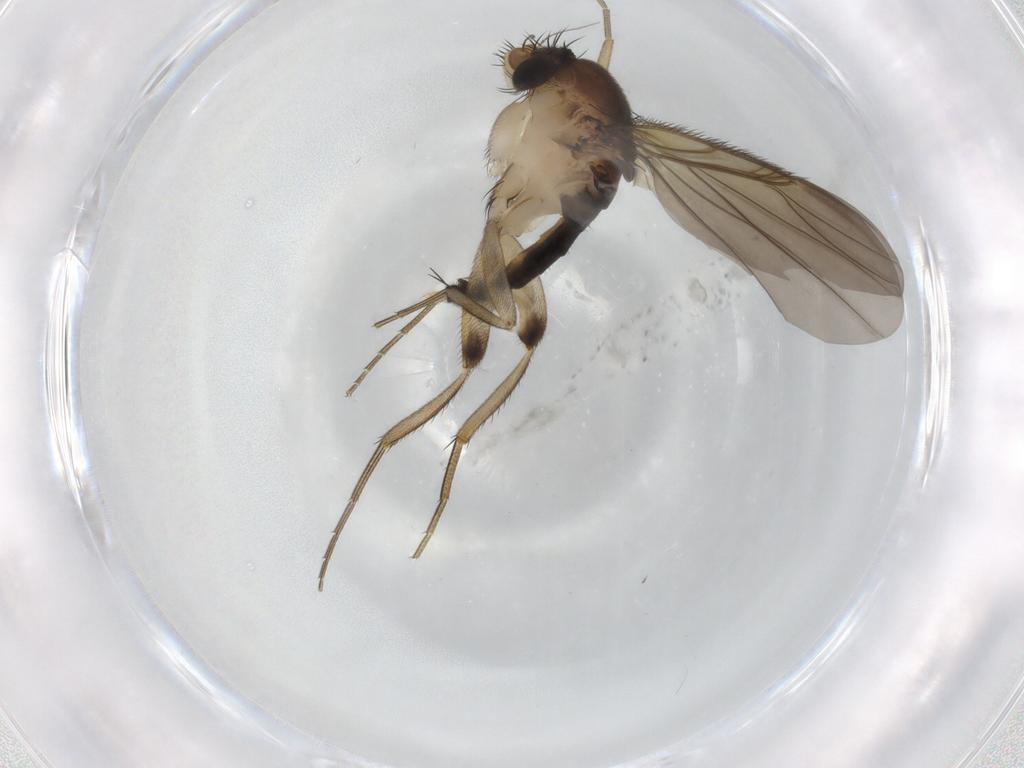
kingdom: Animalia
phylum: Arthropoda
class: Insecta
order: Diptera
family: Phoridae
